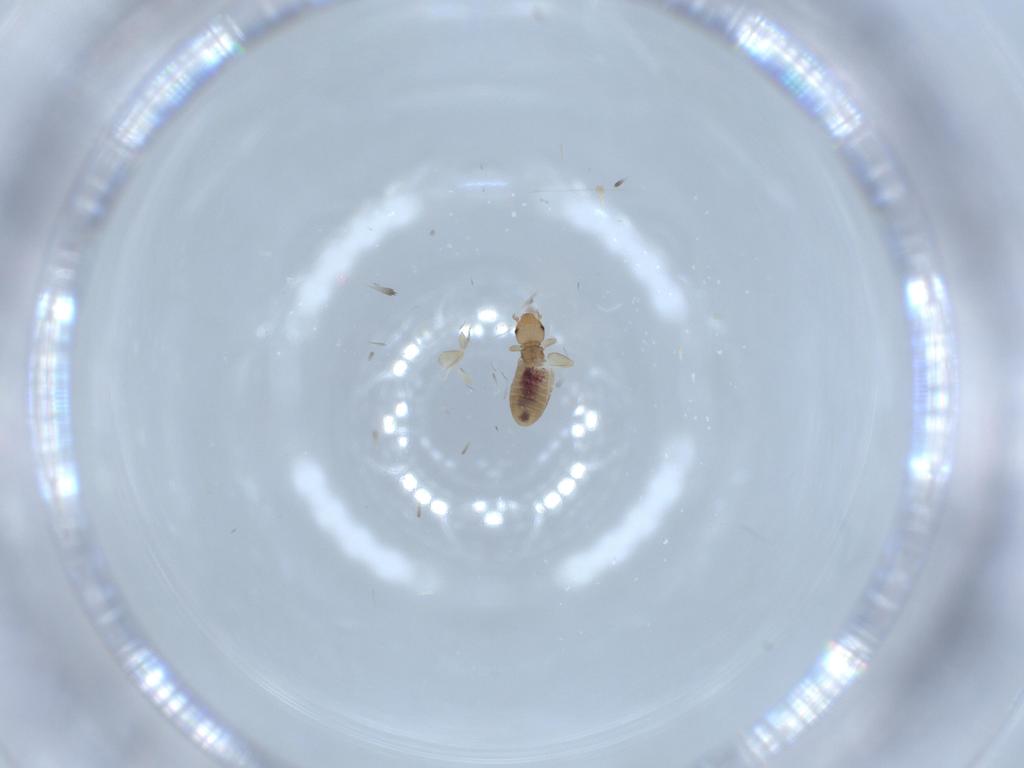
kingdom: Animalia
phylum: Arthropoda
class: Insecta
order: Psocodea
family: Liposcelididae
